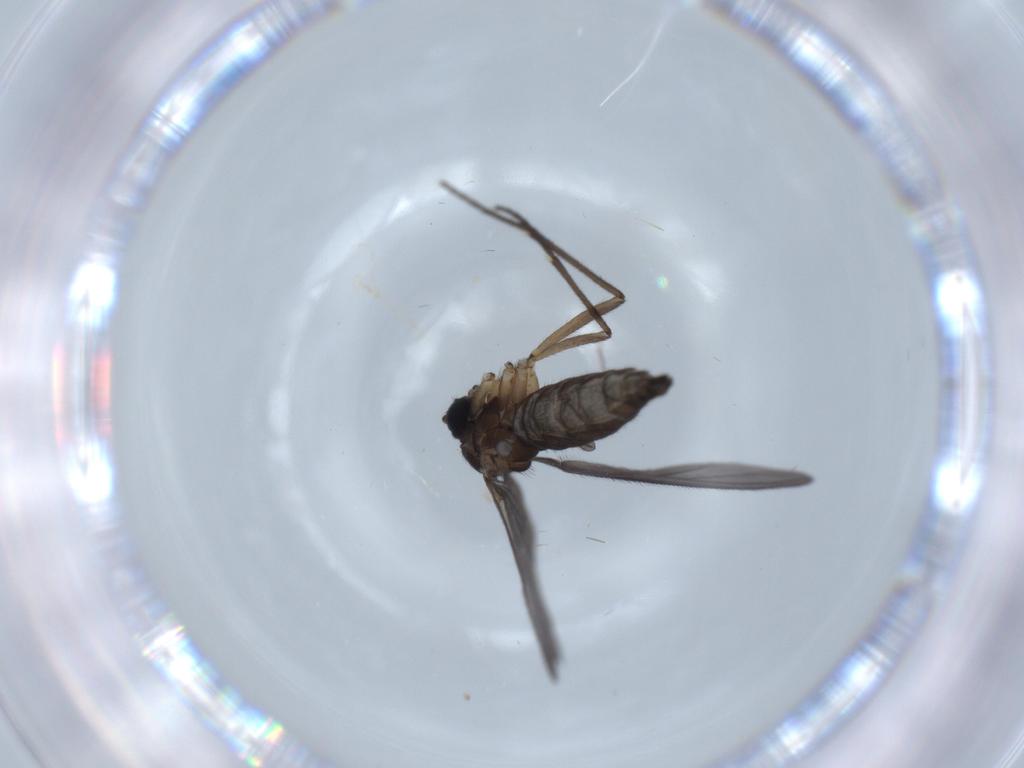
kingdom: Animalia
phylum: Arthropoda
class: Insecta
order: Diptera
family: Sciaridae
